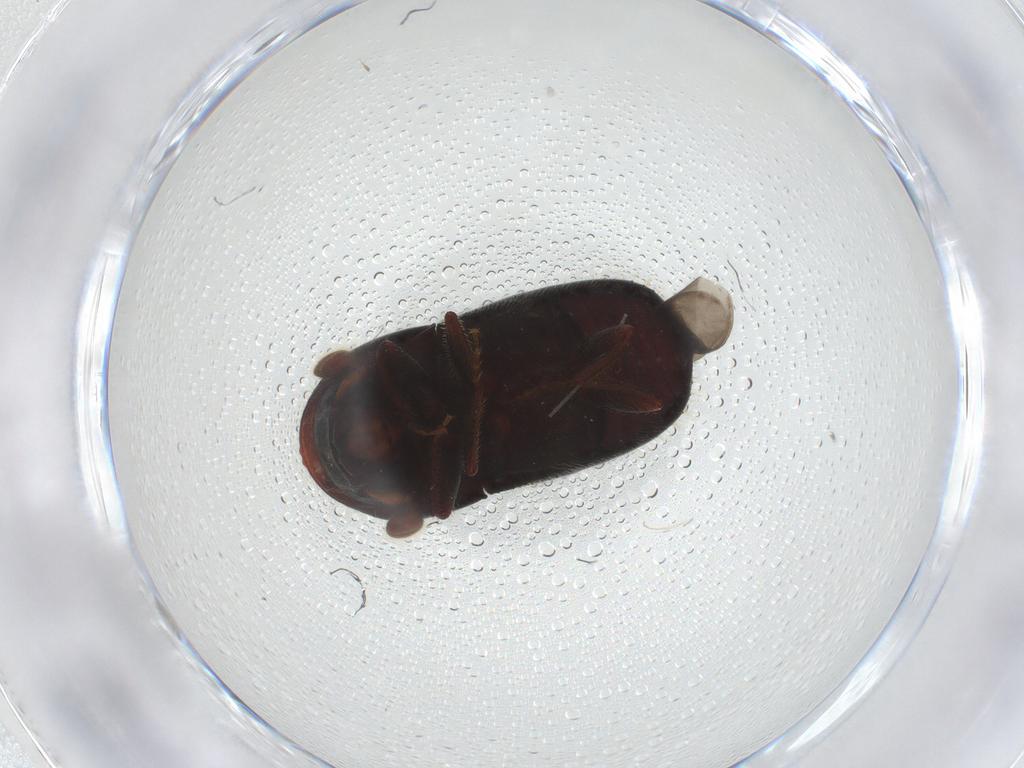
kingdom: Animalia
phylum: Arthropoda
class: Insecta
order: Coleoptera
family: Curculionidae
